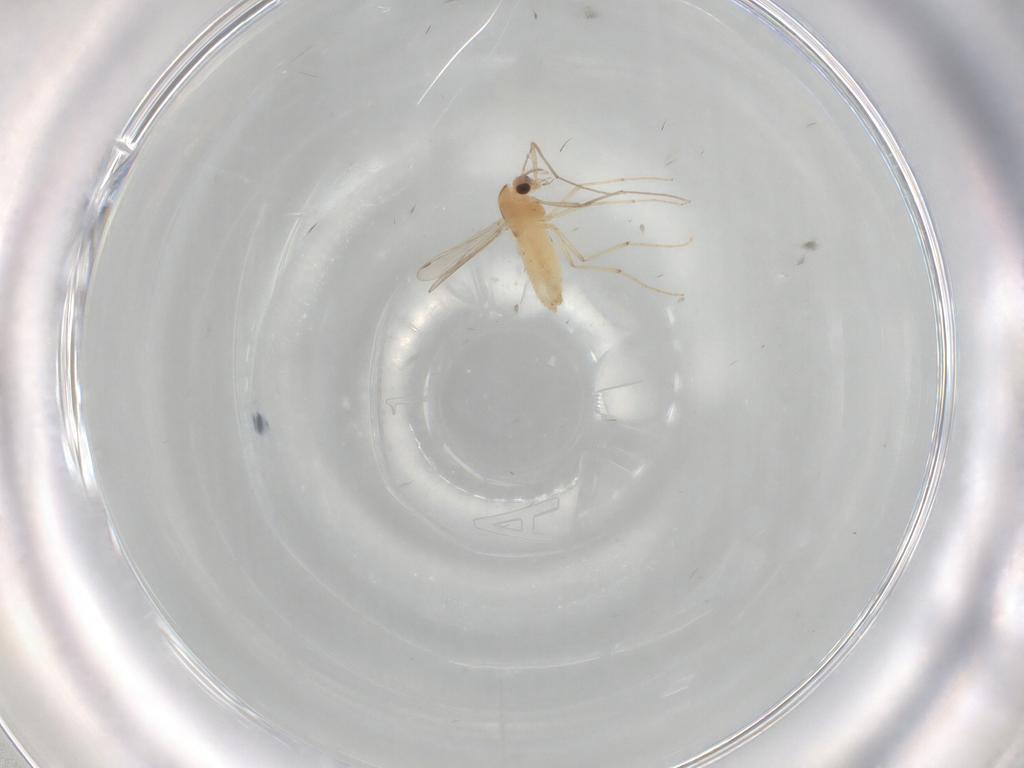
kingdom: Animalia
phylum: Arthropoda
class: Insecta
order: Diptera
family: Chironomidae
